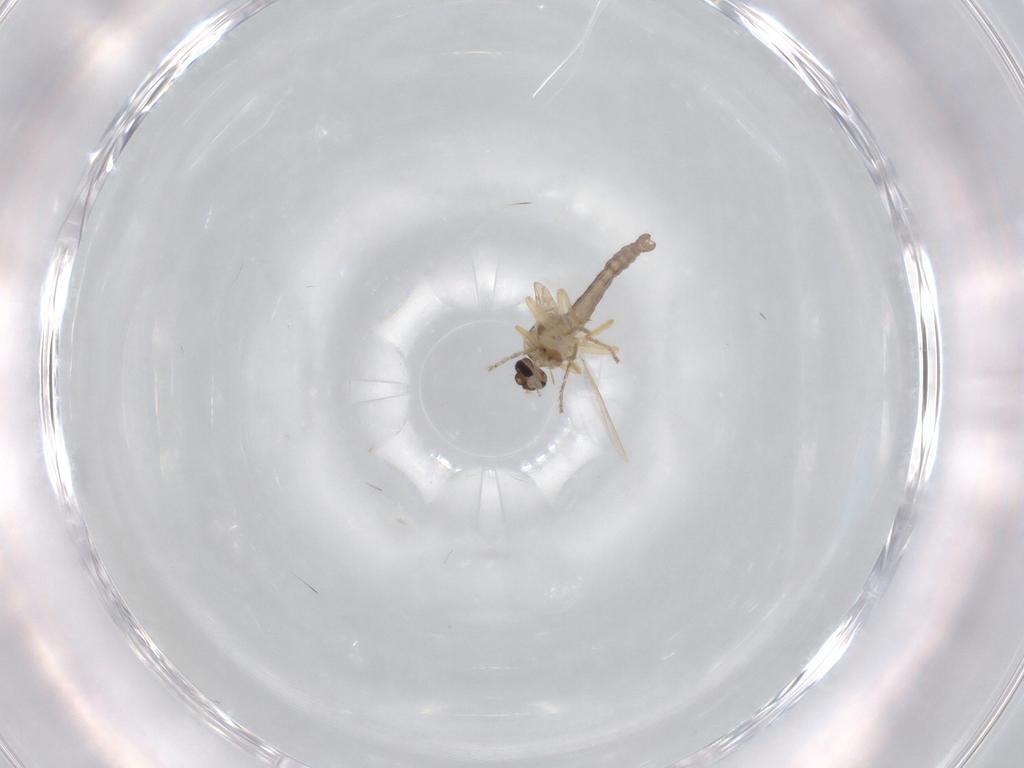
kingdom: Animalia
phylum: Arthropoda
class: Insecta
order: Diptera
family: Ceratopogonidae
